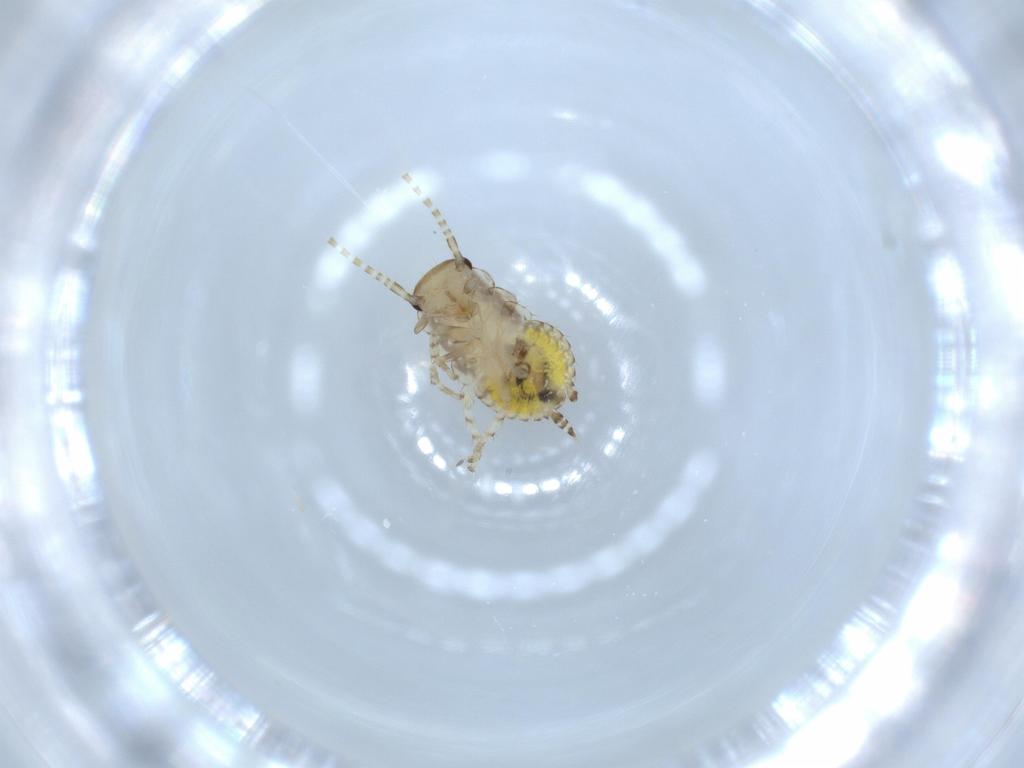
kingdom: Animalia
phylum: Arthropoda
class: Insecta
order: Blattodea
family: Ectobiidae
